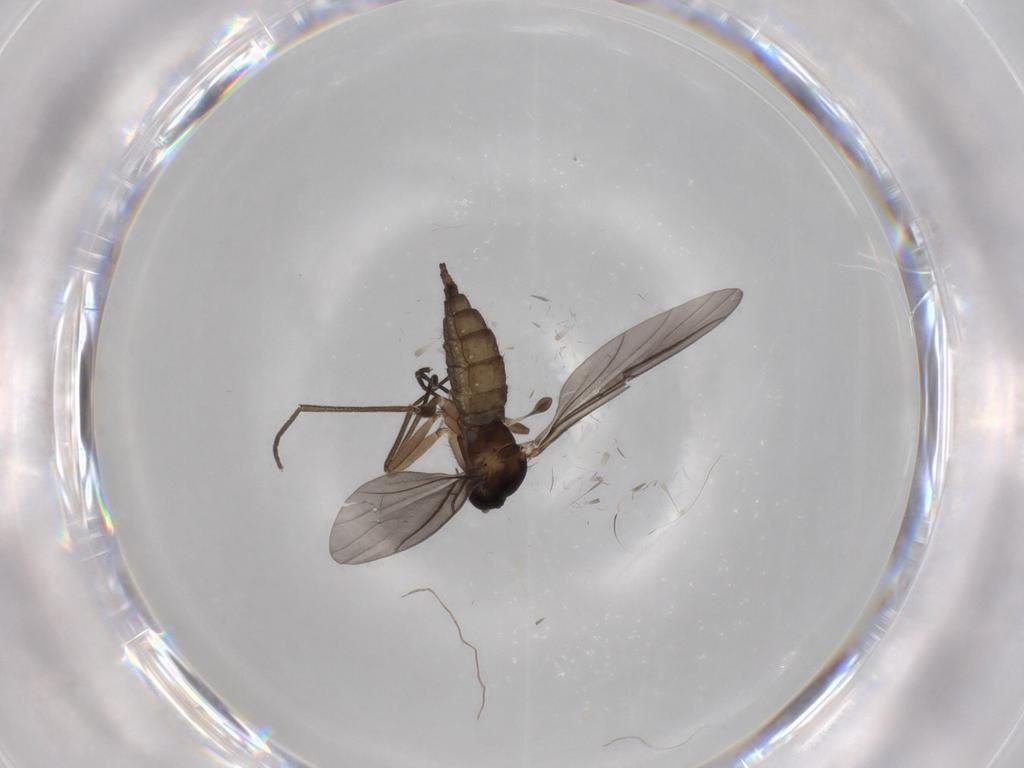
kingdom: Animalia
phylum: Arthropoda
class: Insecta
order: Diptera
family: Sciaridae
